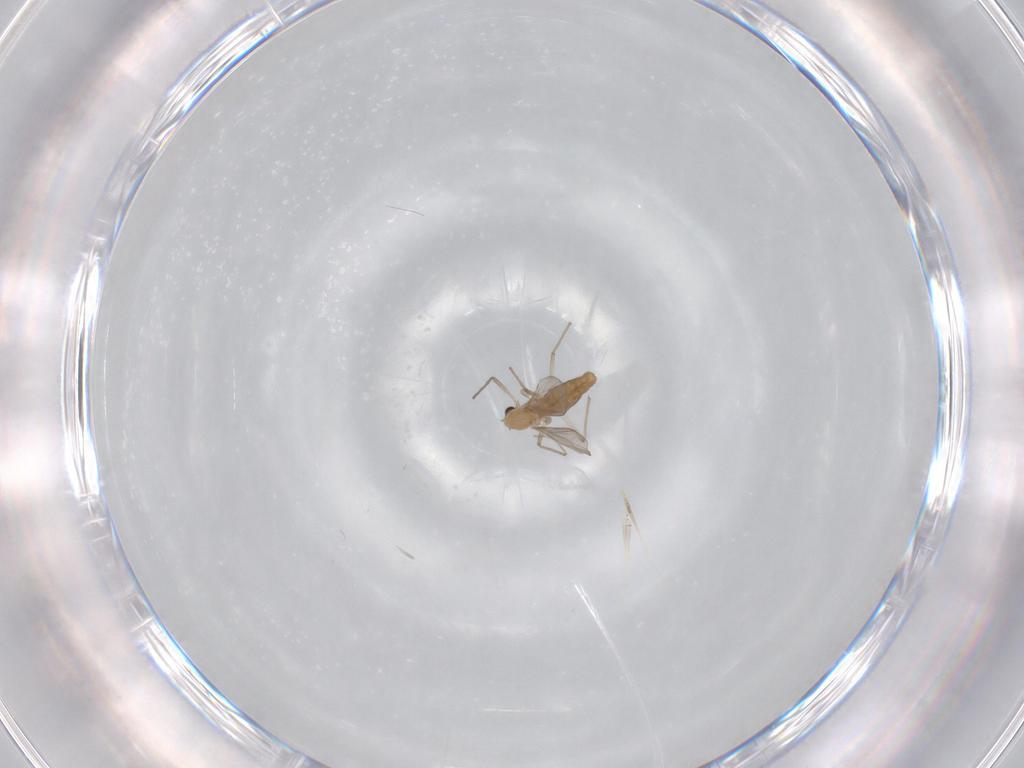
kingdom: Animalia
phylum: Arthropoda
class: Insecta
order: Diptera
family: Chironomidae
